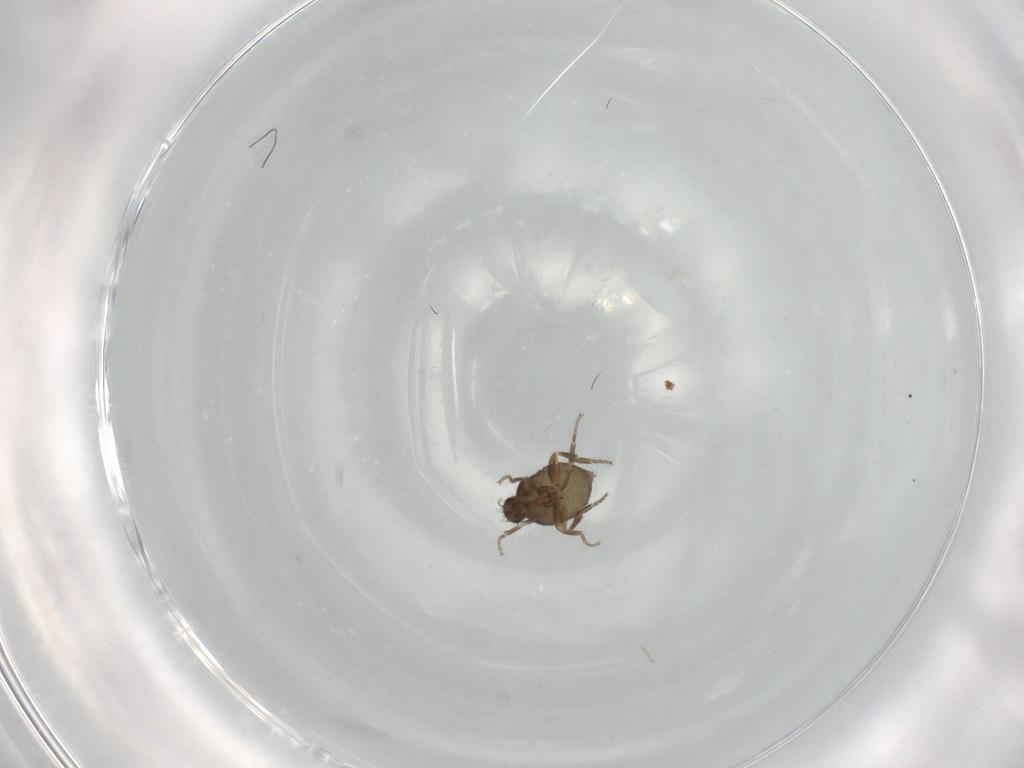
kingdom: Animalia
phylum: Arthropoda
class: Insecta
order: Diptera
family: Phoridae
